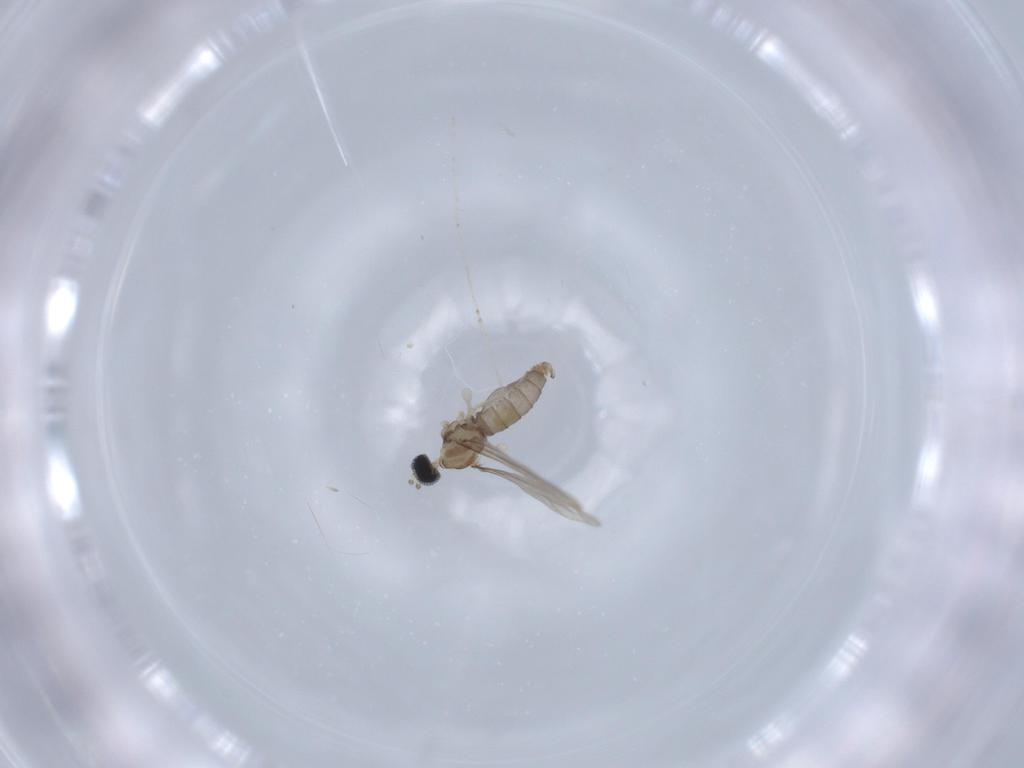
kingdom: Animalia
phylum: Arthropoda
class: Insecta
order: Diptera
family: Cecidomyiidae
